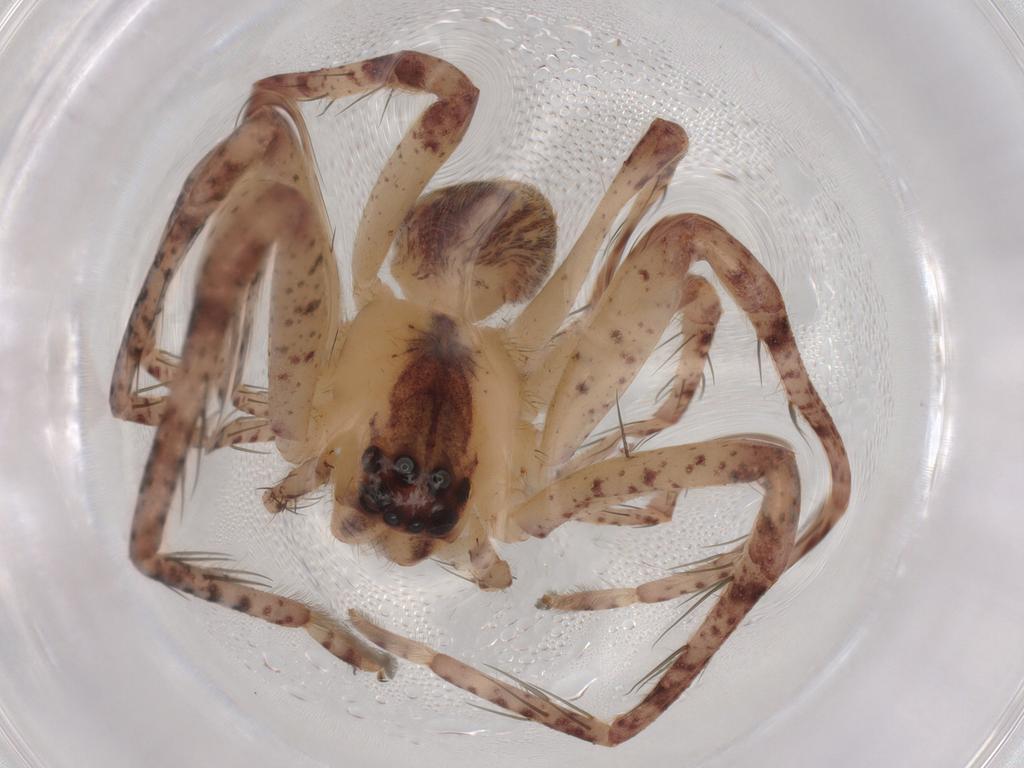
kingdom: Animalia
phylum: Arthropoda
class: Arachnida
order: Araneae
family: Sparassidae
